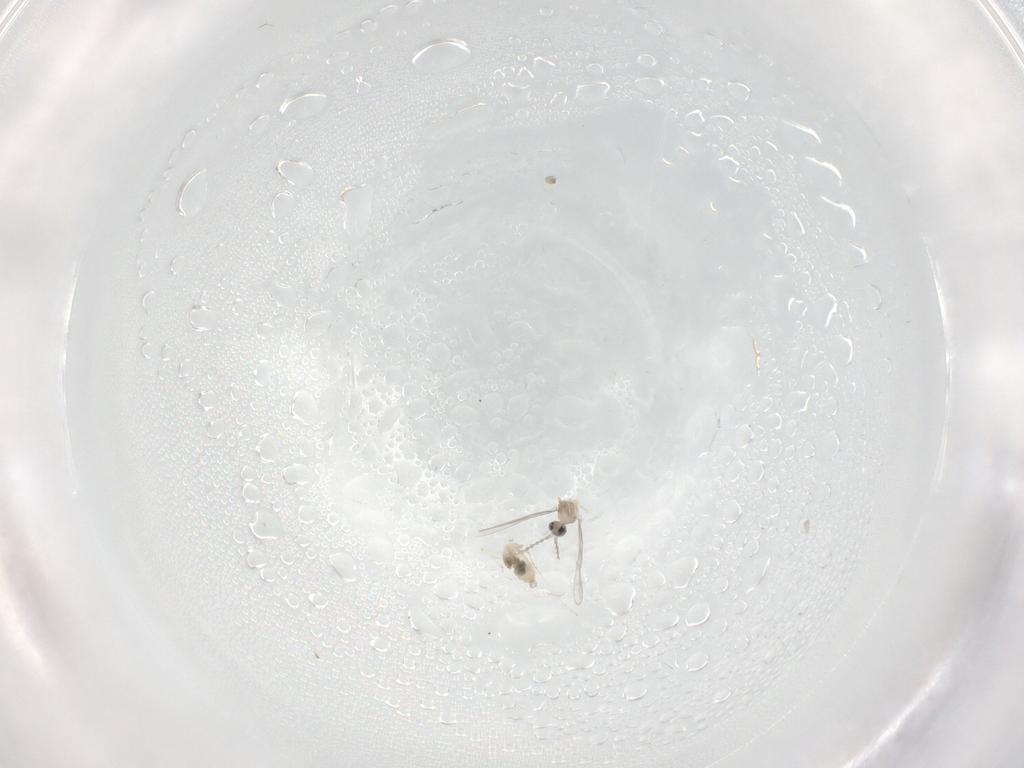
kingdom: Animalia
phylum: Arthropoda
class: Insecta
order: Diptera
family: Cecidomyiidae
